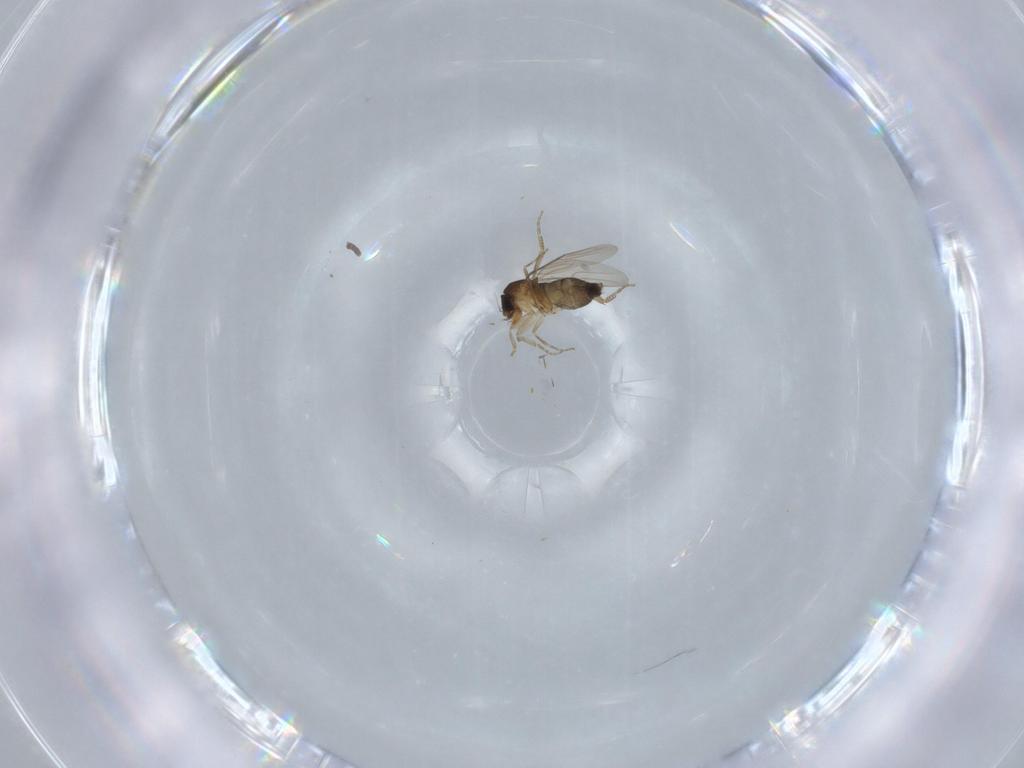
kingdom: Animalia
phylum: Arthropoda
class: Insecta
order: Diptera
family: Phoridae
